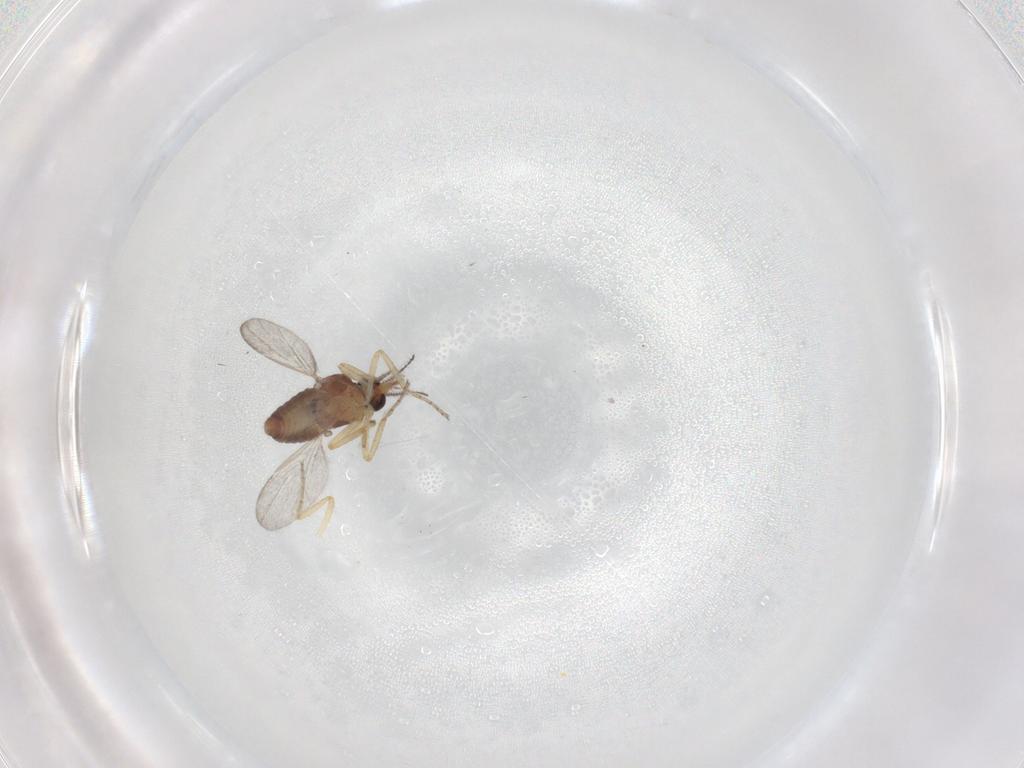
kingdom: Animalia
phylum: Arthropoda
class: Insecta
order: Diptera
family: Ceratopogonidae
